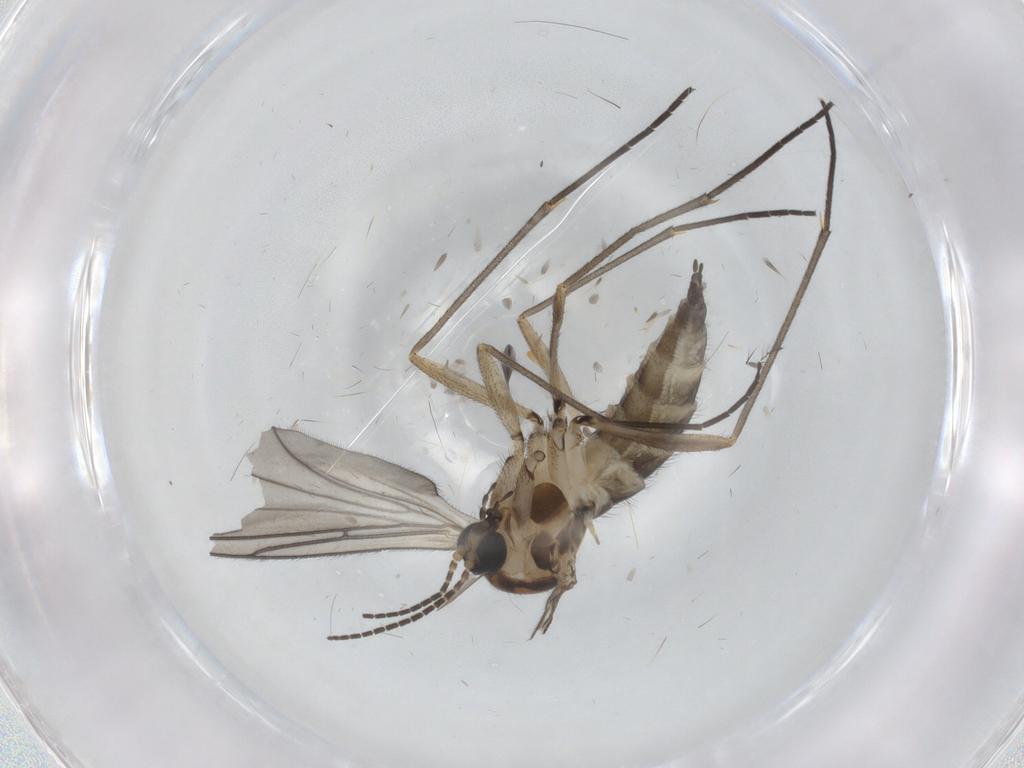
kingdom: Animalia
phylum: Arthropoda
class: Insecta
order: Diptera
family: Sciaridae
